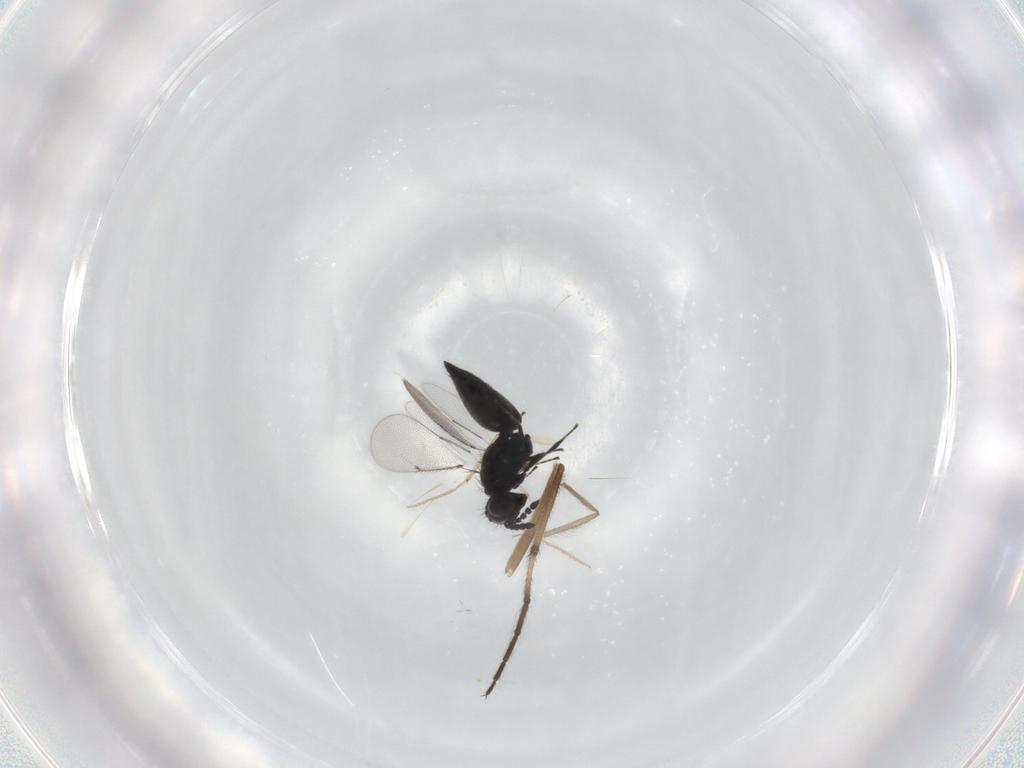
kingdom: Animalia
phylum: Arthropoda
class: Insecta
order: Hymenoptera
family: Eulophidae
